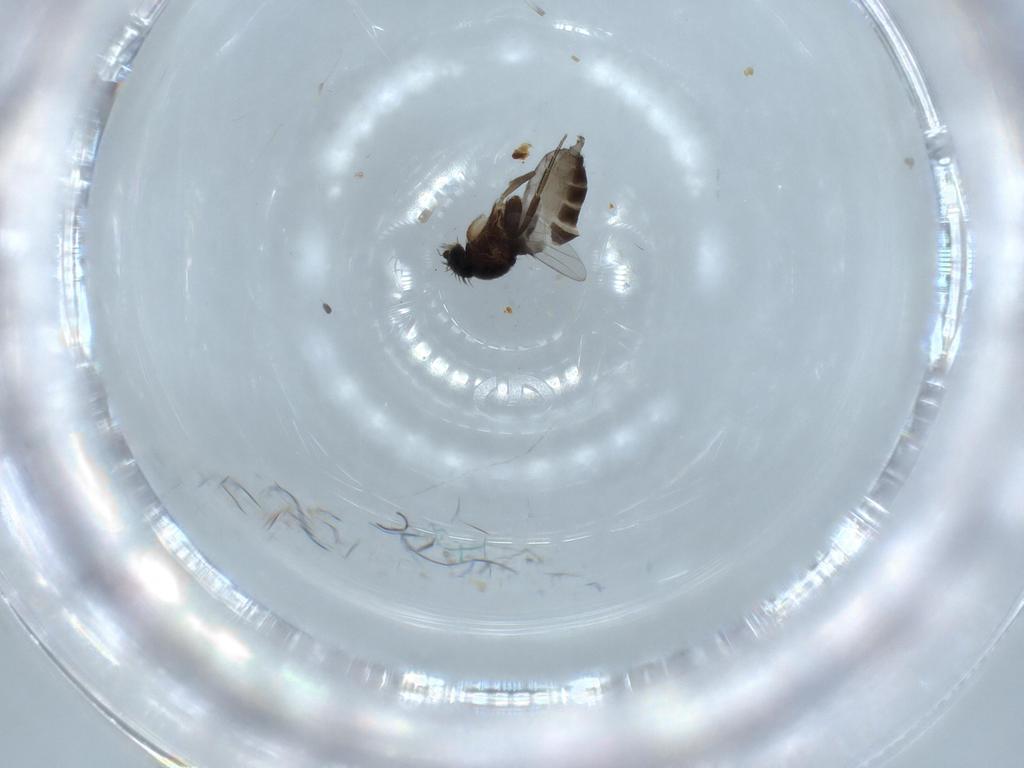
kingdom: Animalia
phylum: Arthropoda
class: Insecta
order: Diptera
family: Phoridae
